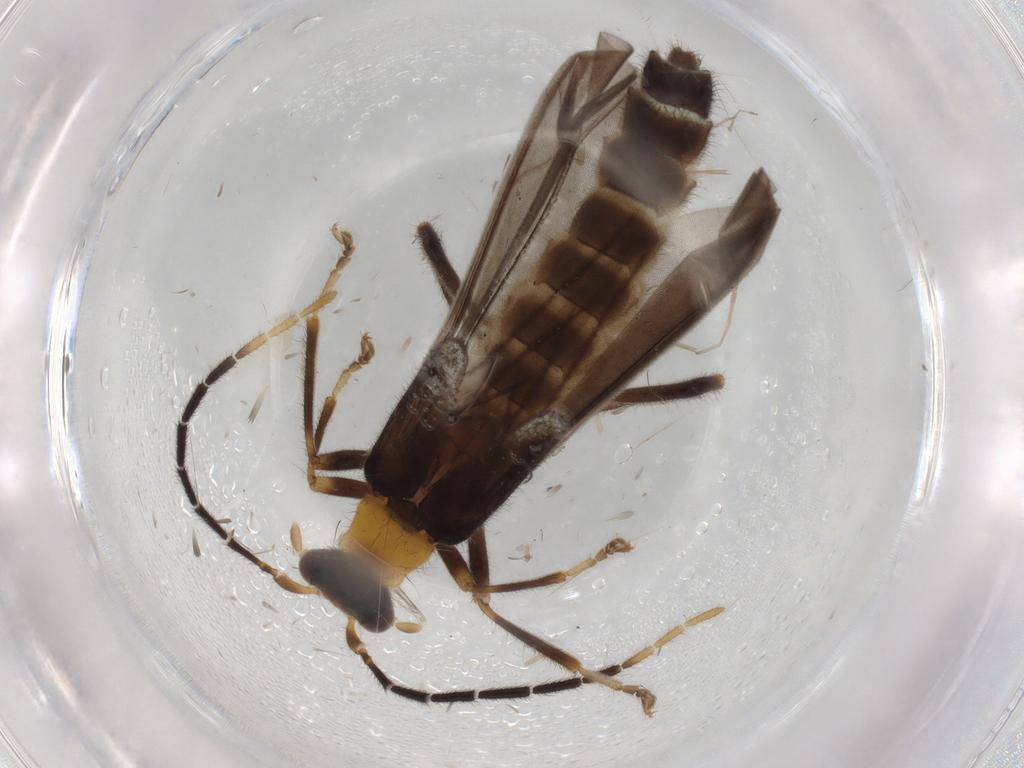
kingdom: Animalia
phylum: Arthropoda
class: Insecta
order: Coleoptera
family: Cantharidae
